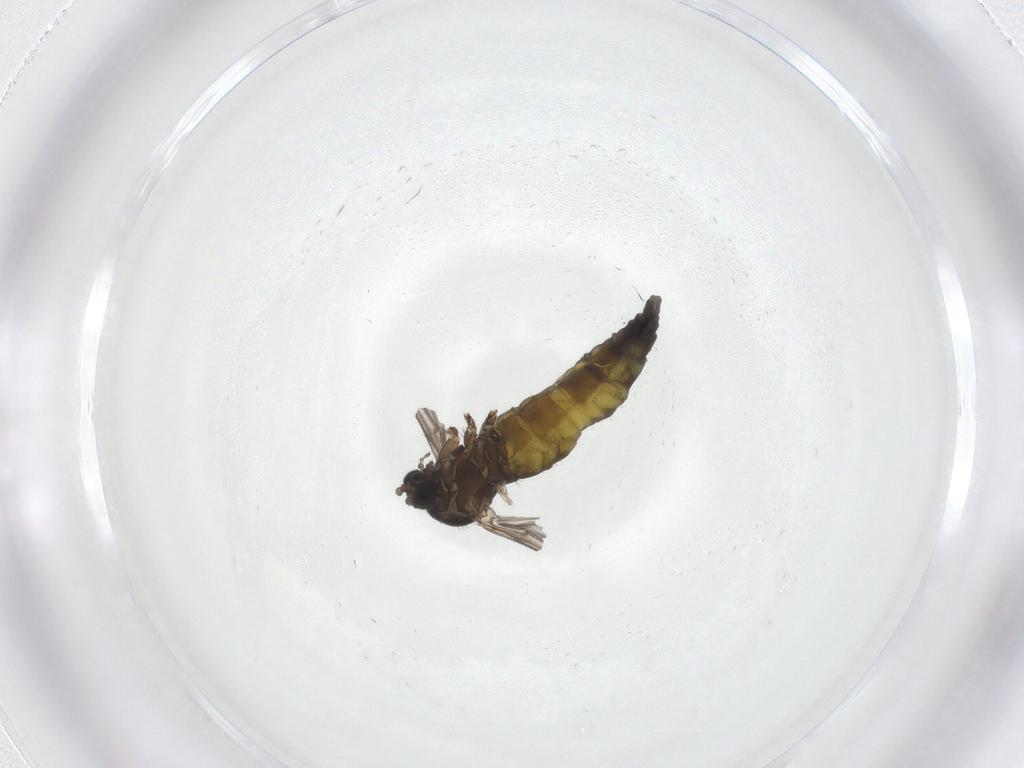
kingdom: Animalia
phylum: Arthropoda
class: Insecta
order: Diptera
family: Sciaridae
